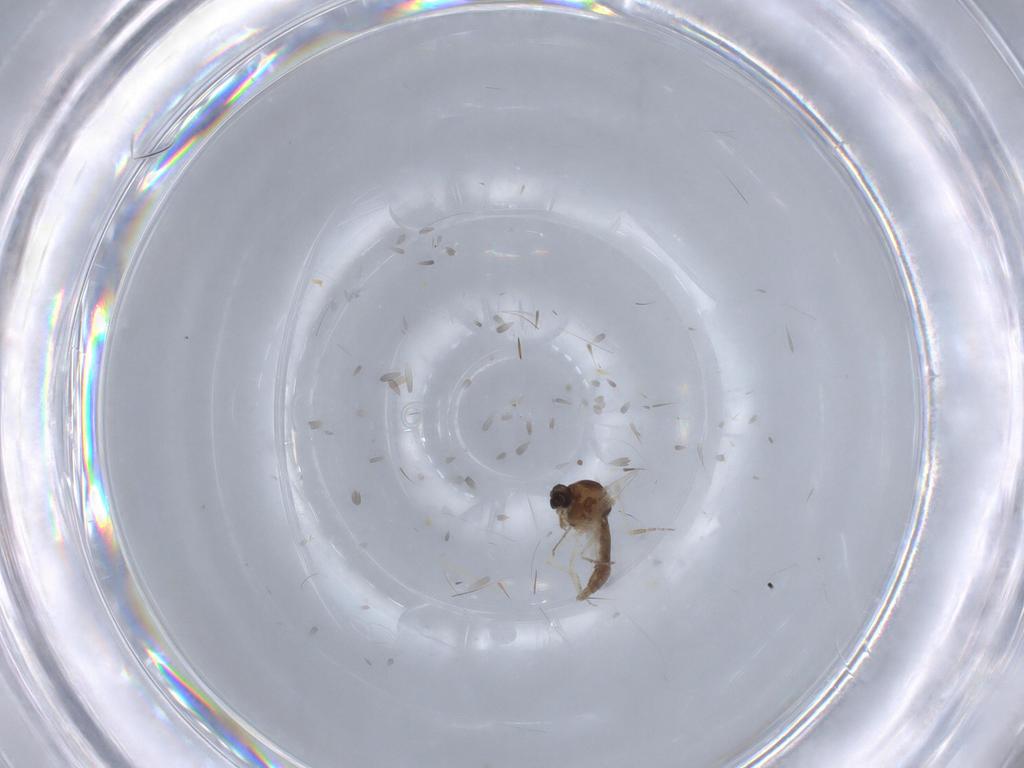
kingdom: Animalia
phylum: Arthropoda
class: Insecta
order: Diptera
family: Ceratopogonidae
